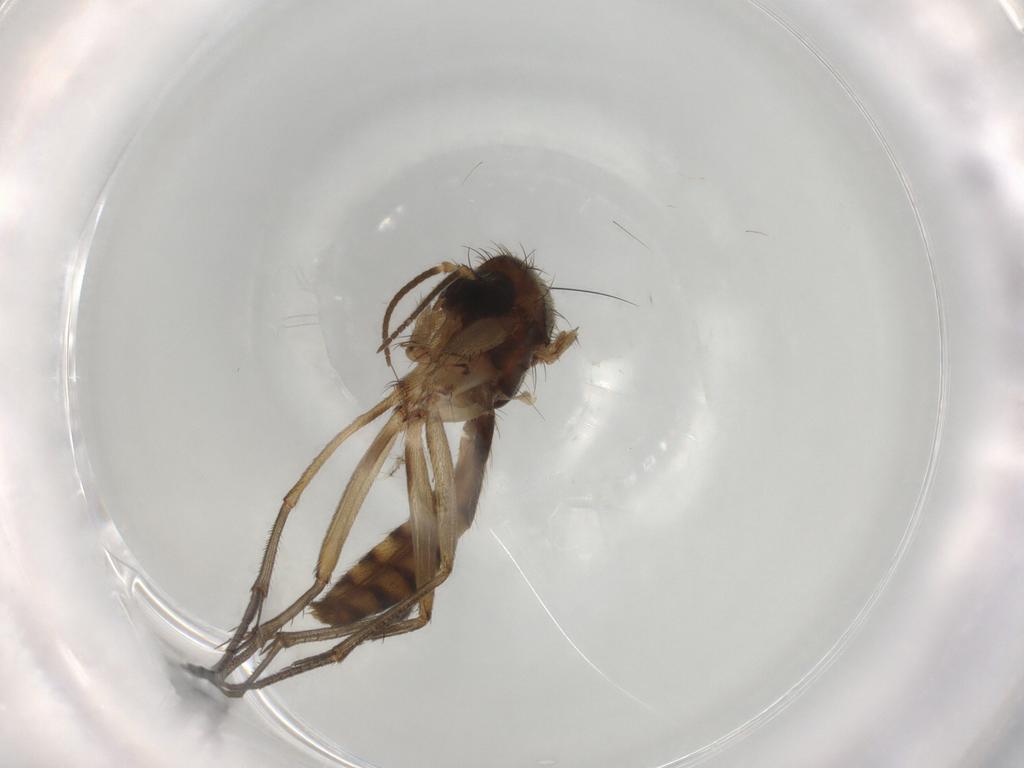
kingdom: Animalia
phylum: Arthropoda
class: Insecta
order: Diptera
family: Mycetophilidae
